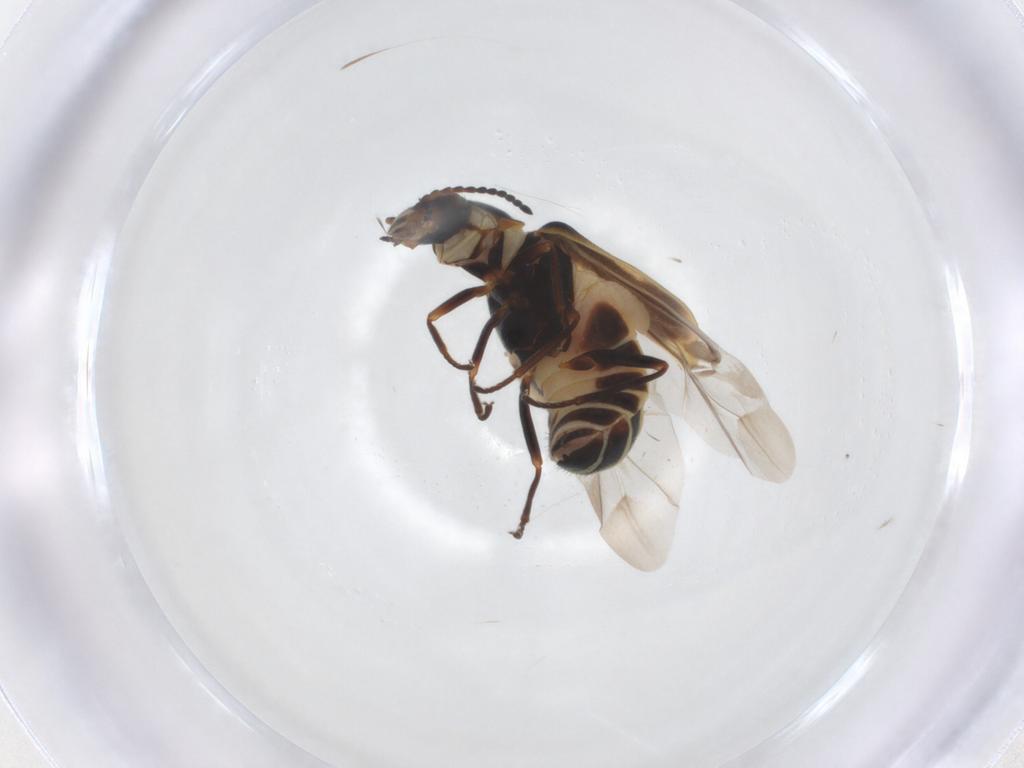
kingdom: Animalia
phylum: Arthropoda
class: Insecta
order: Coleoptera
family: Melyridae
